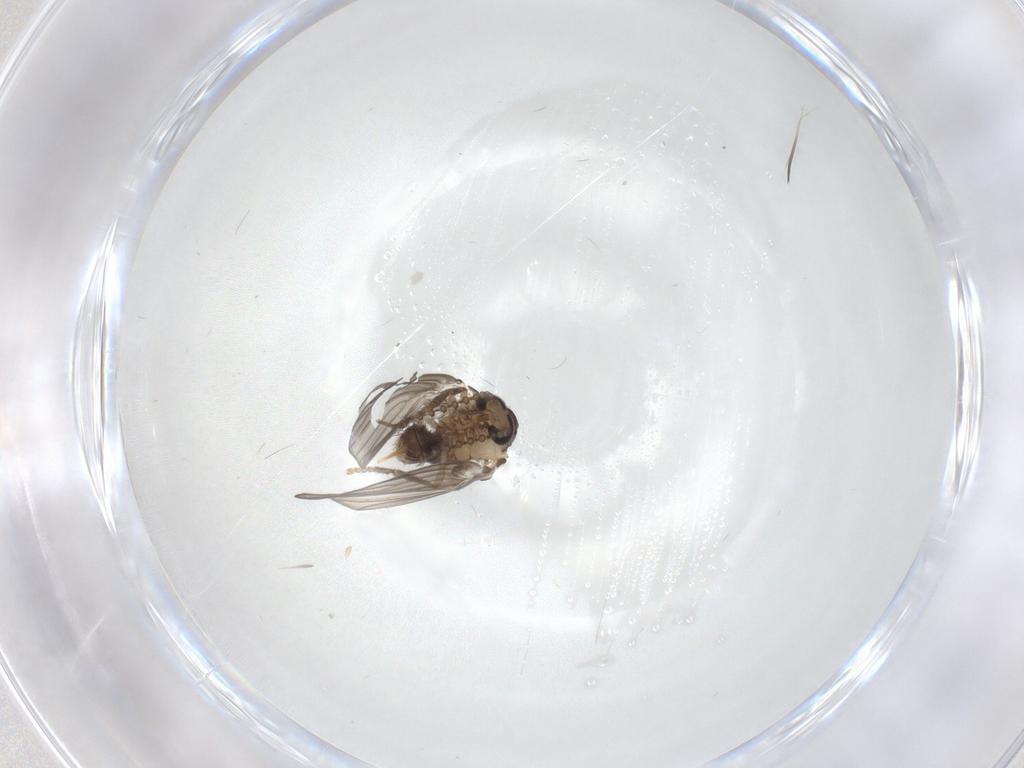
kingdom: Animalia
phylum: Arthropoda
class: Insecta
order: Diptera
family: Psychodidae
